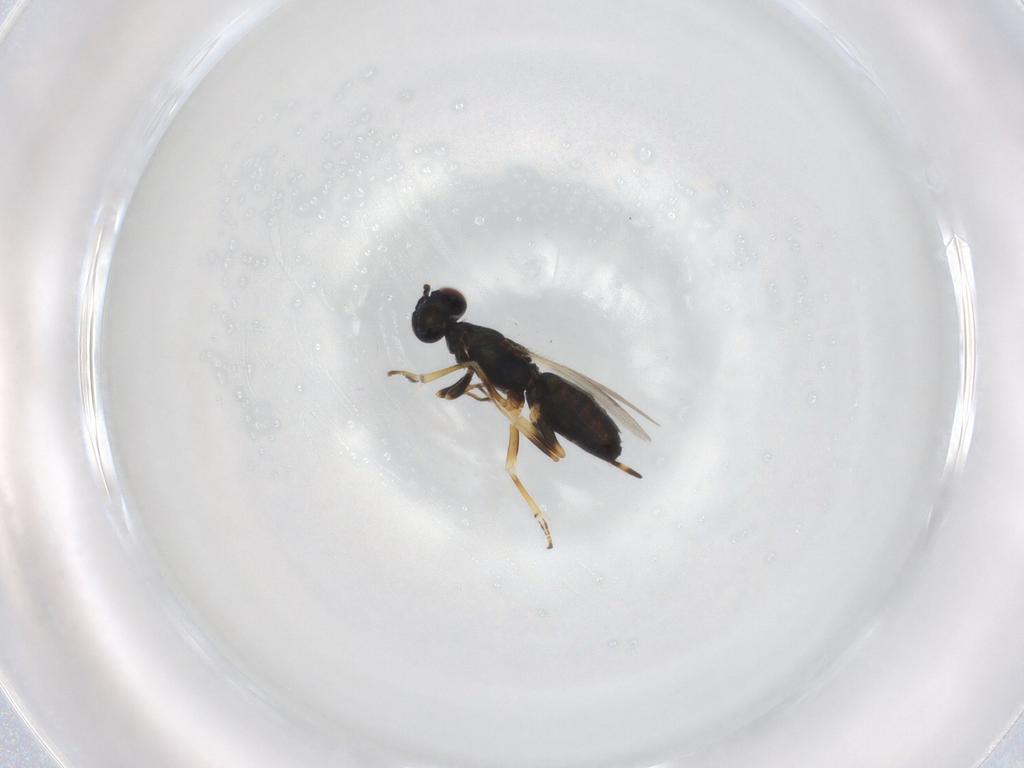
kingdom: Animalia
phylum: Arthropoda
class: Insecta
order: Hymenoptera
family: Eupelmidae
